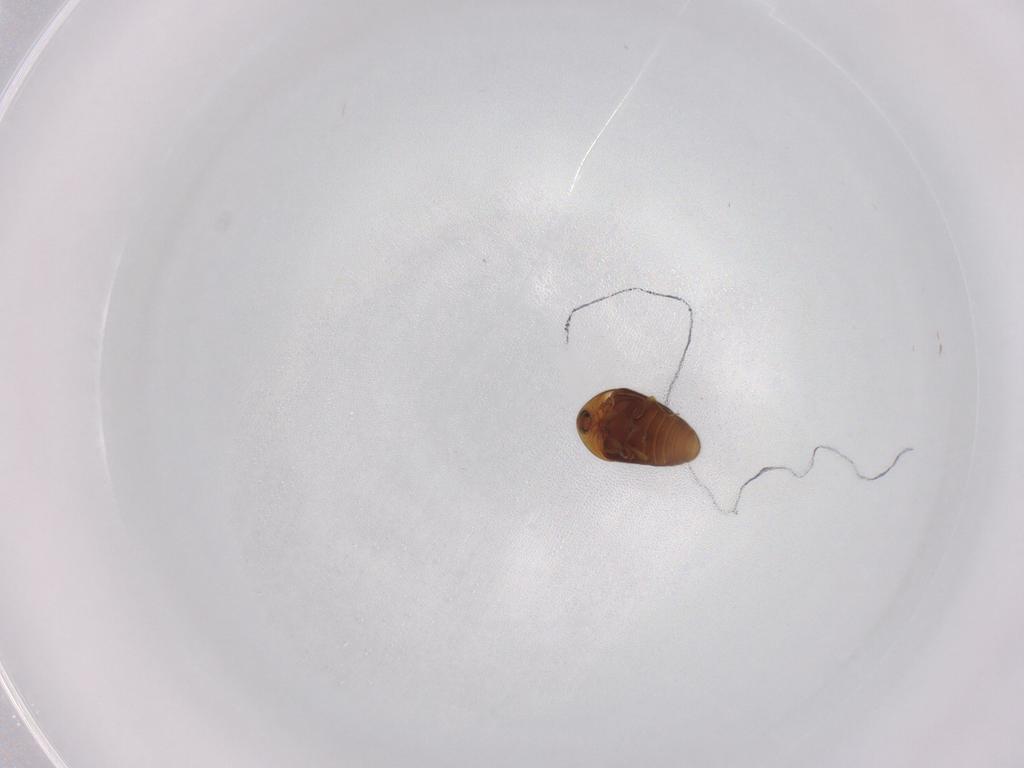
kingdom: Animalia
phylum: Arthropoda
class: Insecta
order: Coleoptera
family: Corylophidae
